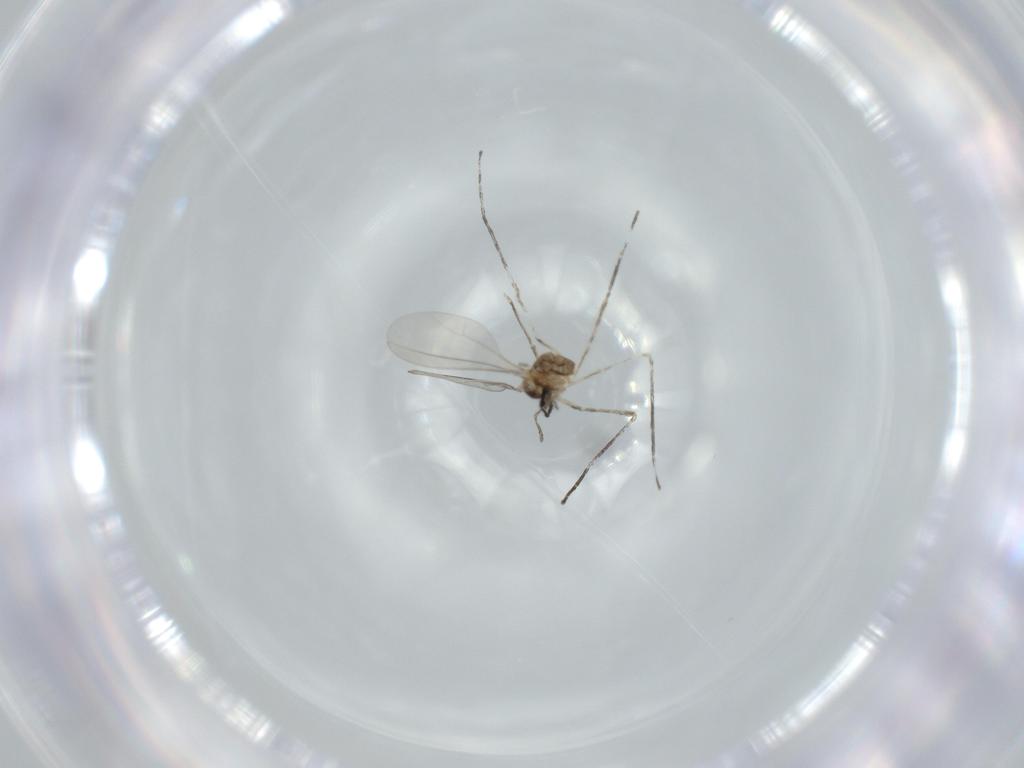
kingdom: Animalia
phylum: Arthropoda
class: Insecta
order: Diptera
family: Cecidomyiidae
